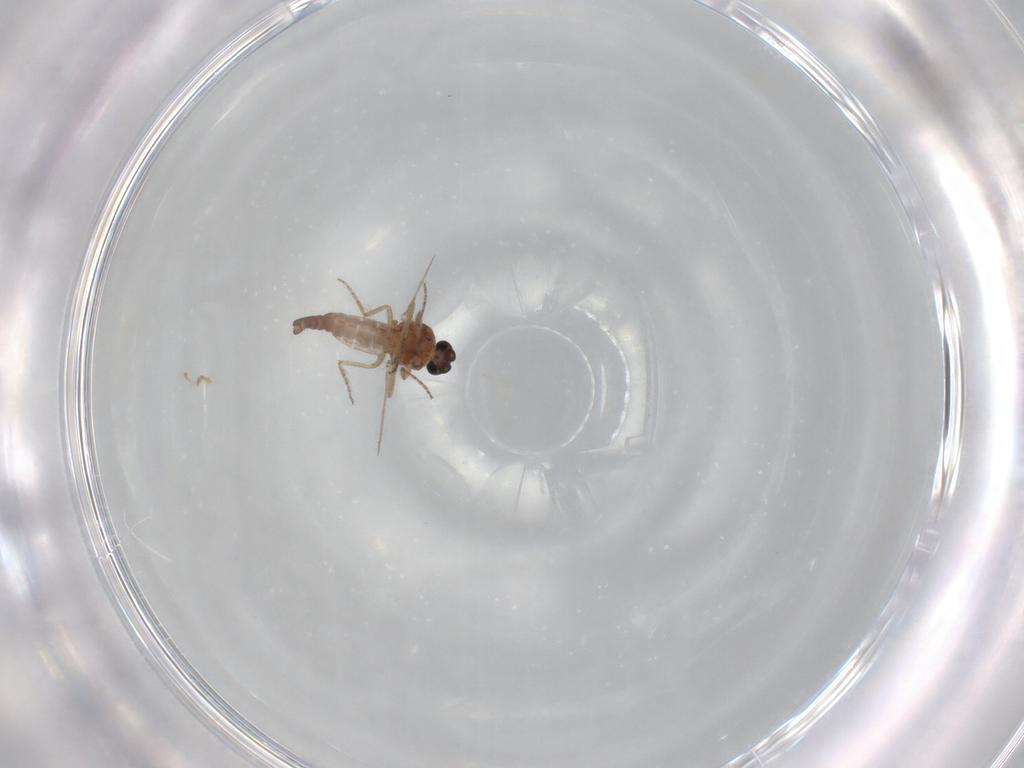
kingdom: Animalia
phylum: Arthropoda
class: Insecta
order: Diptera
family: Ceratopogonidae
